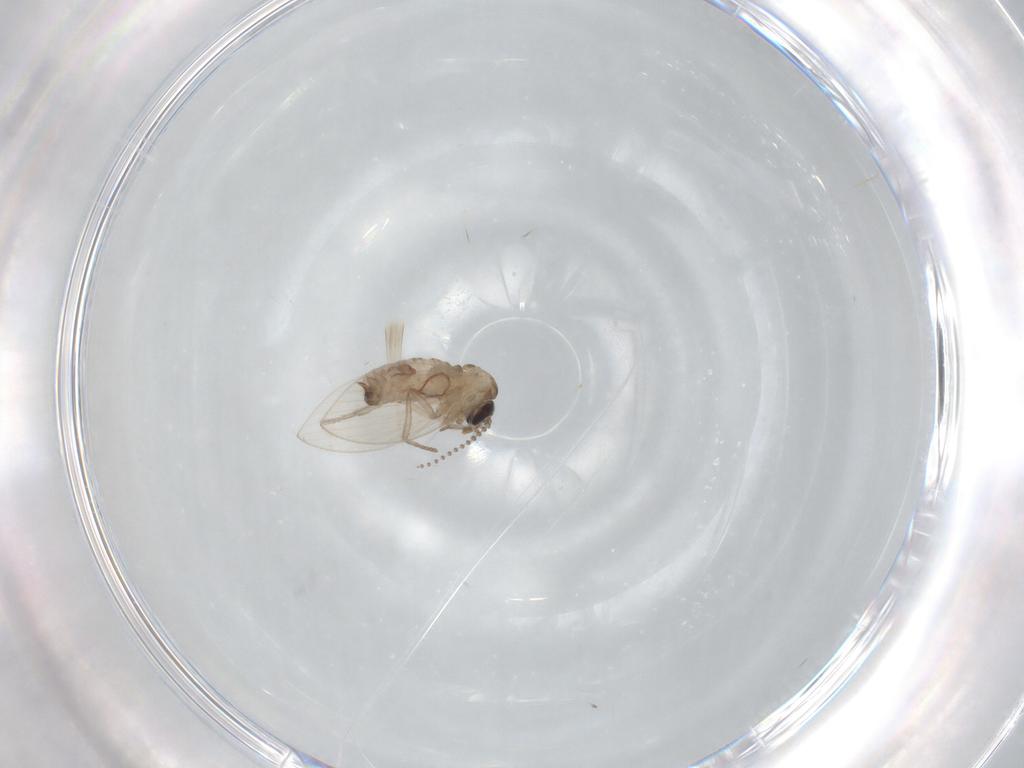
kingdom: Animalia
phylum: Arthropoda
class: Insecta
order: Diptera
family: Psychodidae
